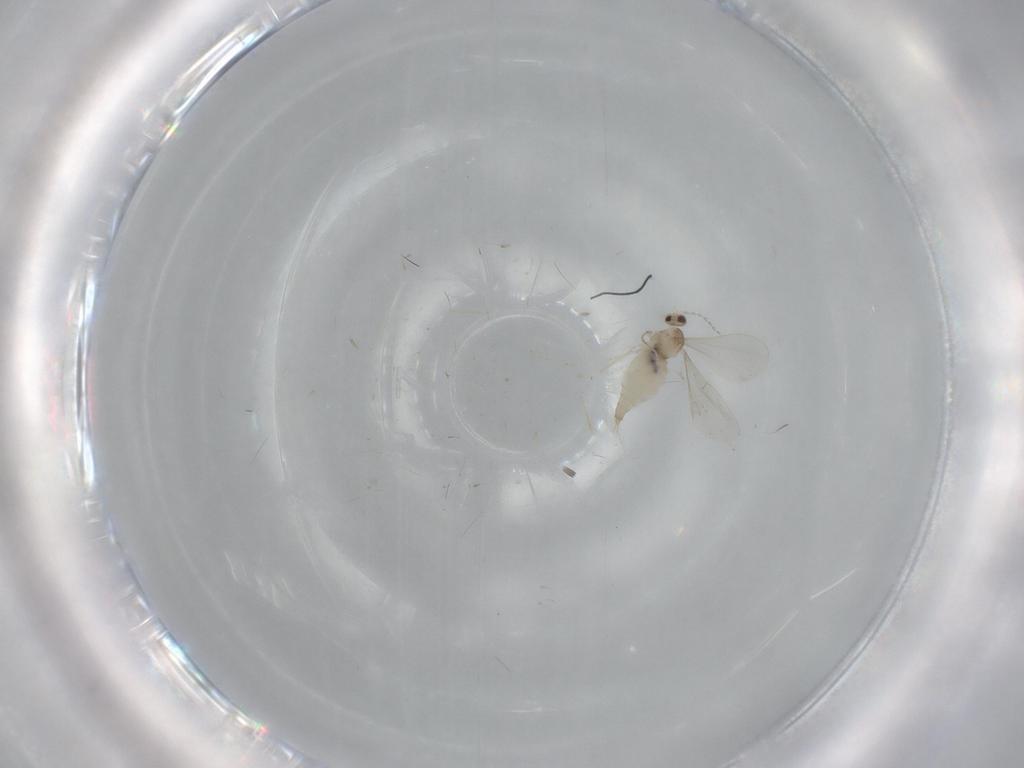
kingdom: Animalia
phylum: Arthropoda
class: Insecta
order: Diptera
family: Cecidomyiidae
